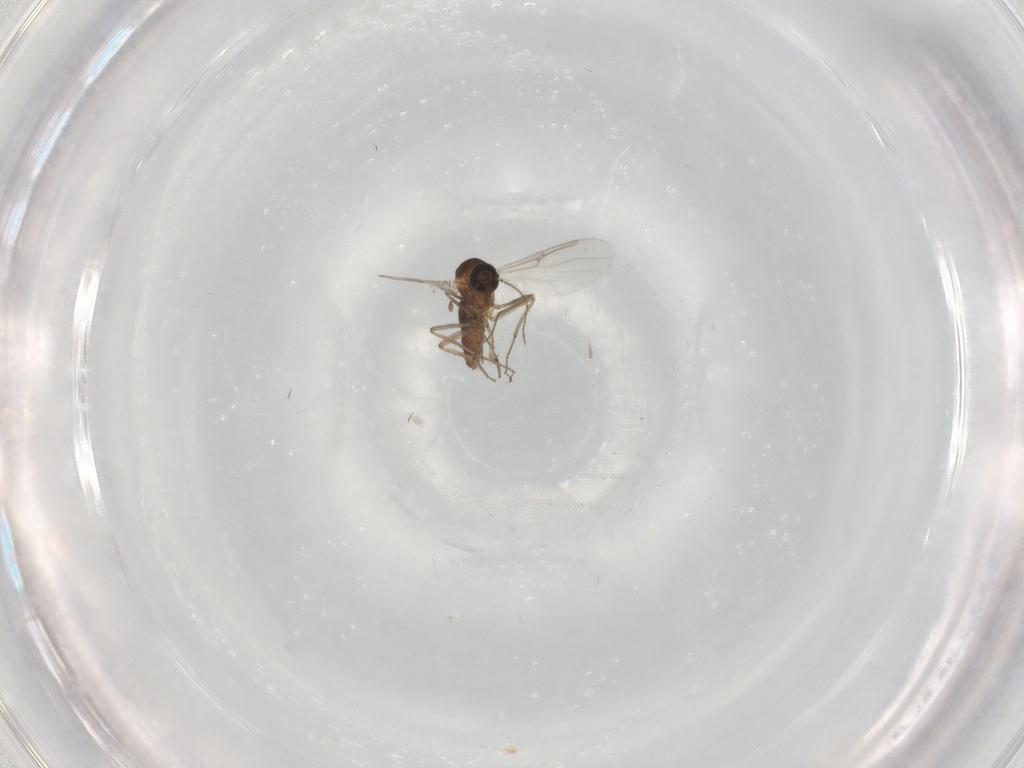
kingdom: Animalia
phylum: Arthropoda
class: Insecta
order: Diptera
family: Ceratopogonidae
